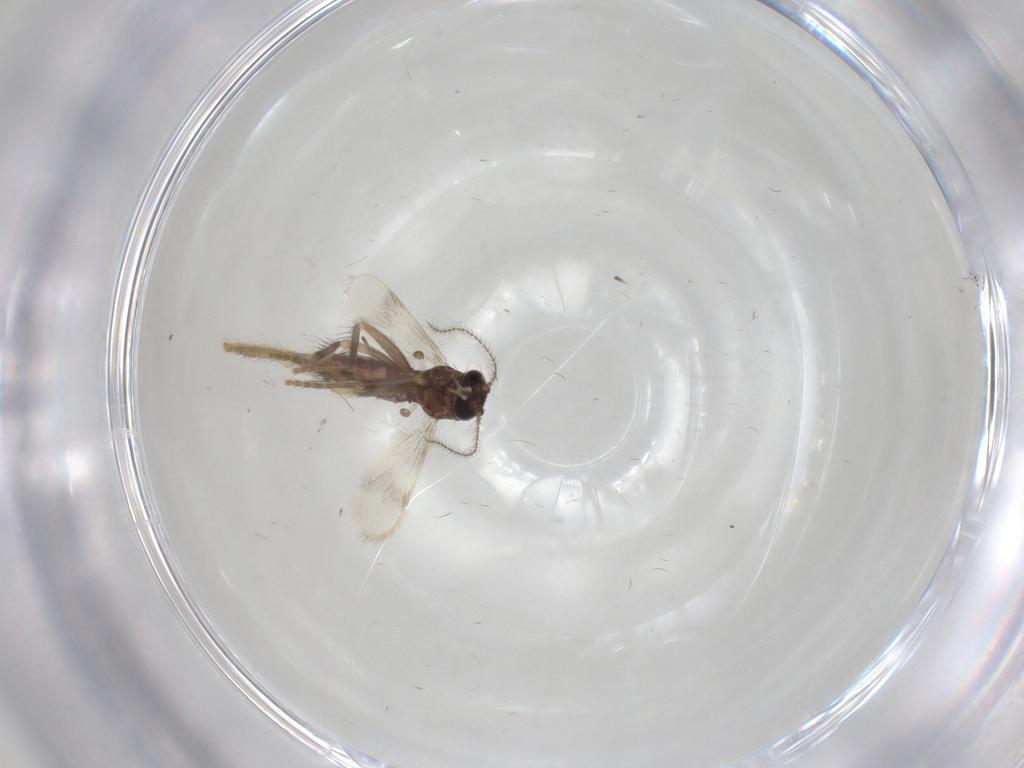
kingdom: Animalia
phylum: Arthropoda
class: Insecta
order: Diptera
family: Corethrellidae
